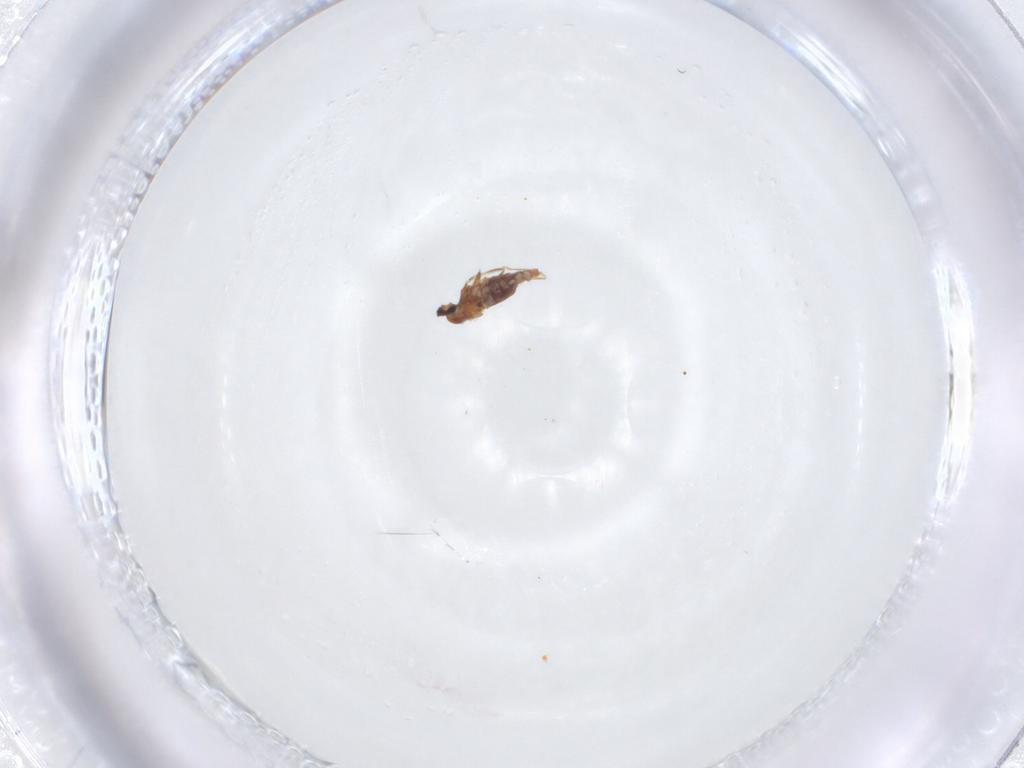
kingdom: Animalia
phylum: Arthropoda
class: Insecta
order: Diptera
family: Cecidomyiidae
